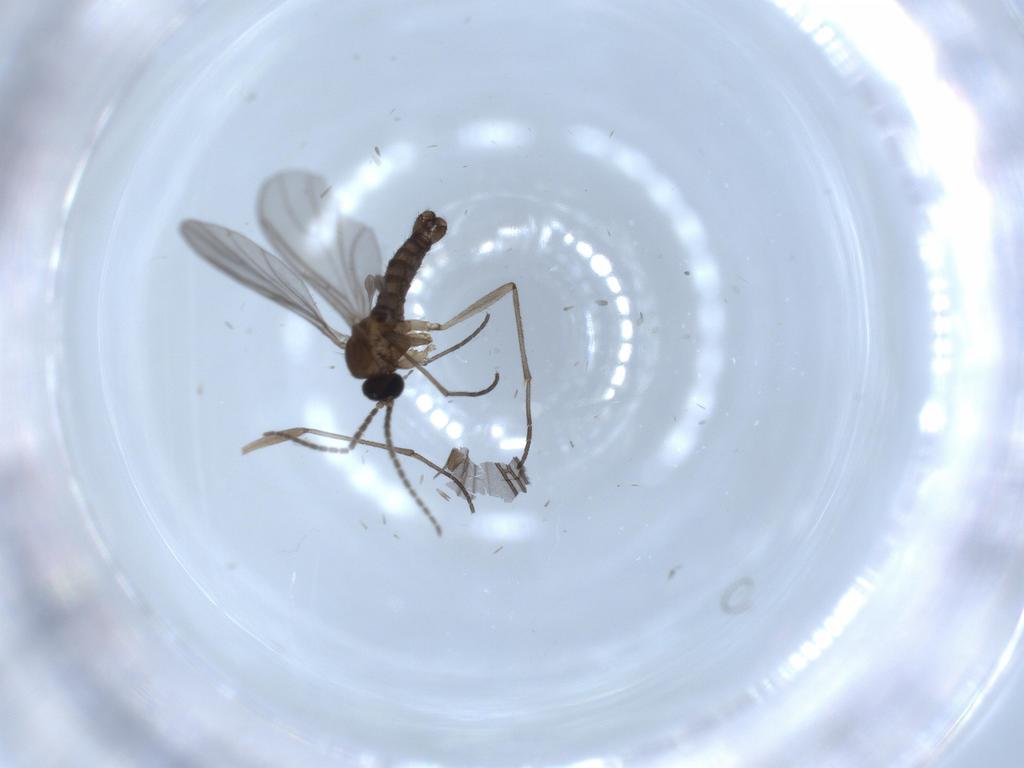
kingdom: Animalia
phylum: Arthropoda
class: Insecta
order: Diptera
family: Sciaridae
